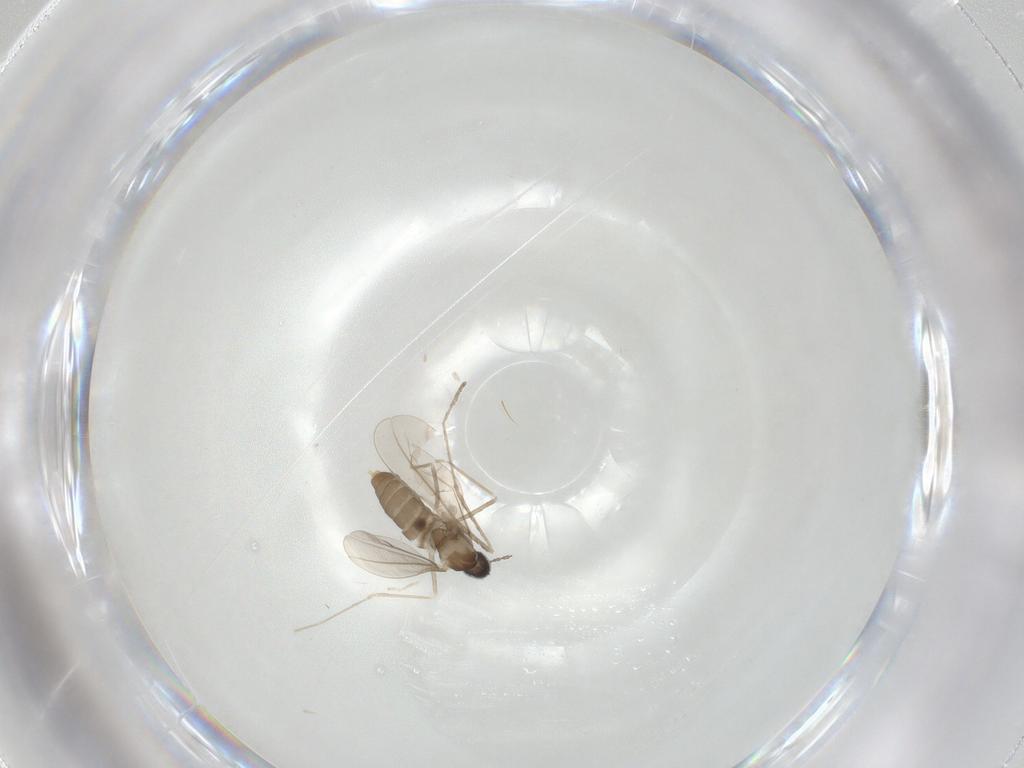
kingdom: Animalia
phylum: Arthropoda
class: Insecta
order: Diptera
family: Cecidomyiidae
